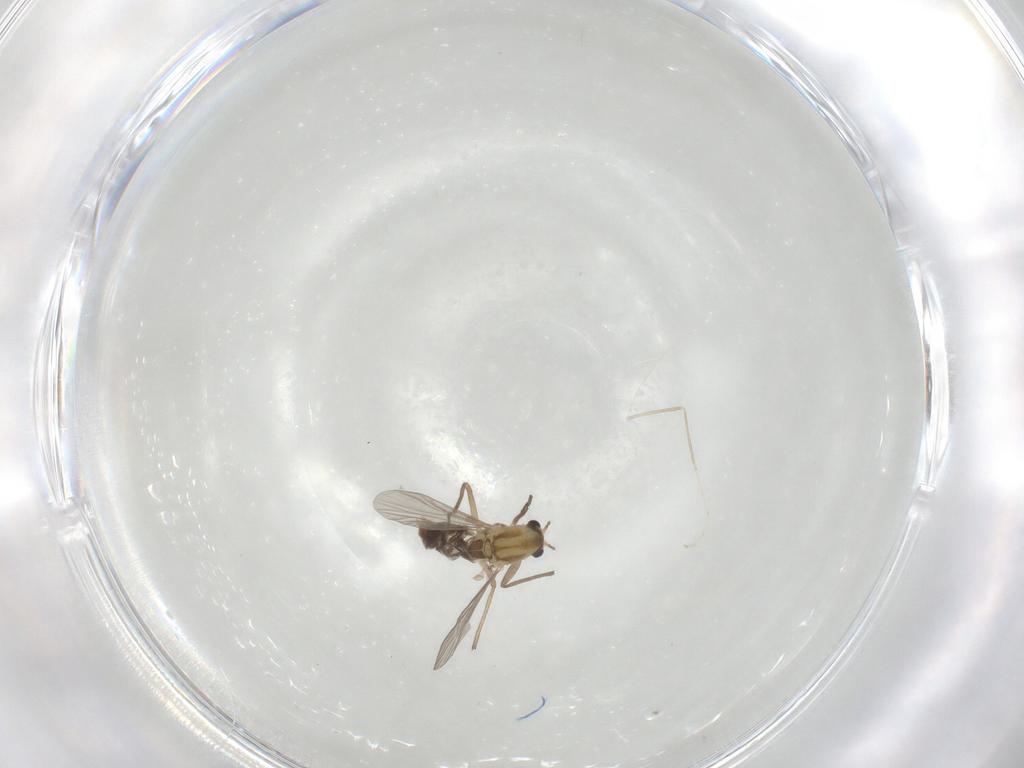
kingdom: Animalia
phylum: Arthropoda
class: Insecta
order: Diptera
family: Chironomidae
